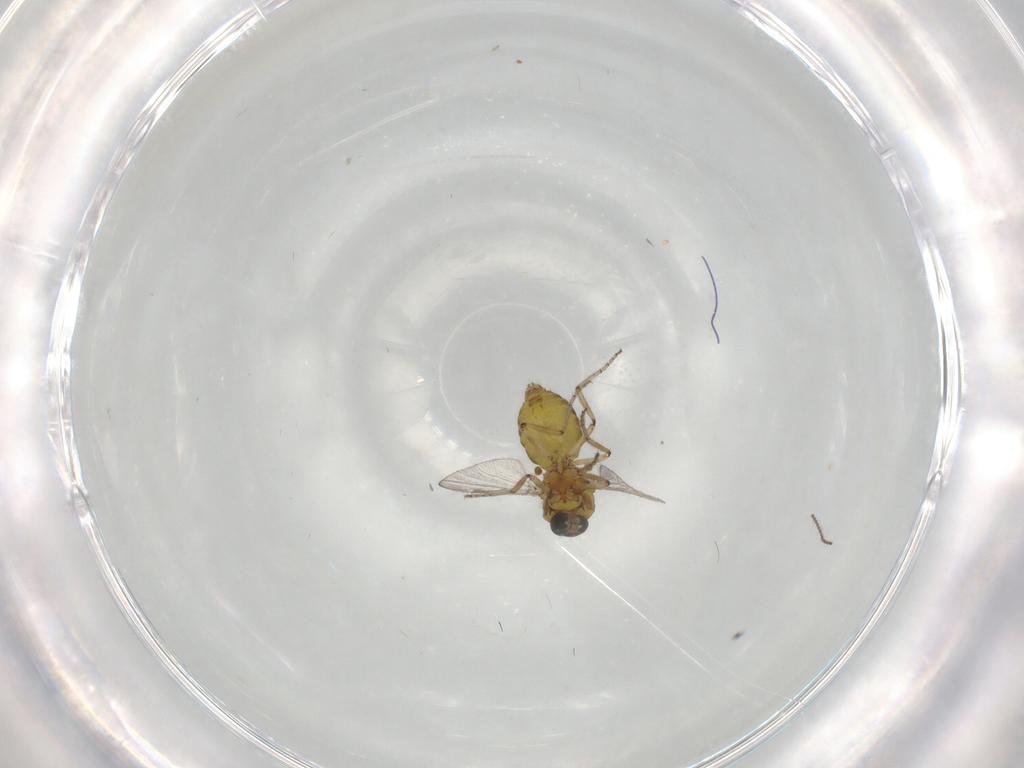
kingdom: Animalia
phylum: Arthropoda
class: Insecta
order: Diptera
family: Ceratopogonidae
